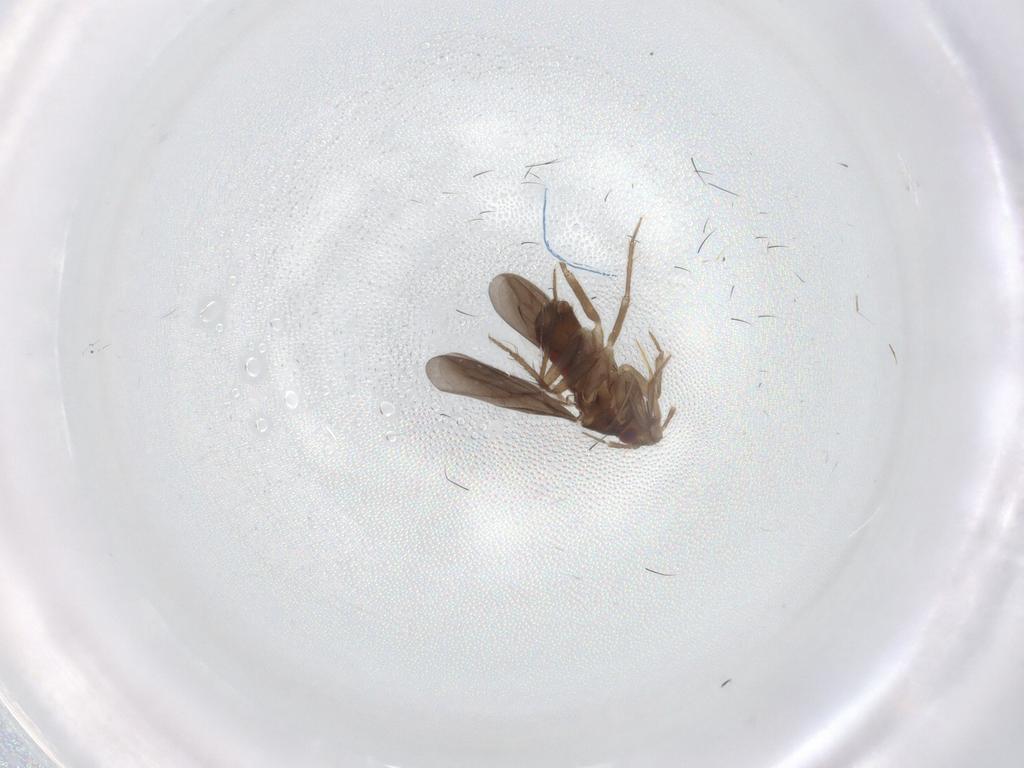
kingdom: Animalia
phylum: Arthropoda
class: Insecta
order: Hemiptera
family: Ceratocombidae
